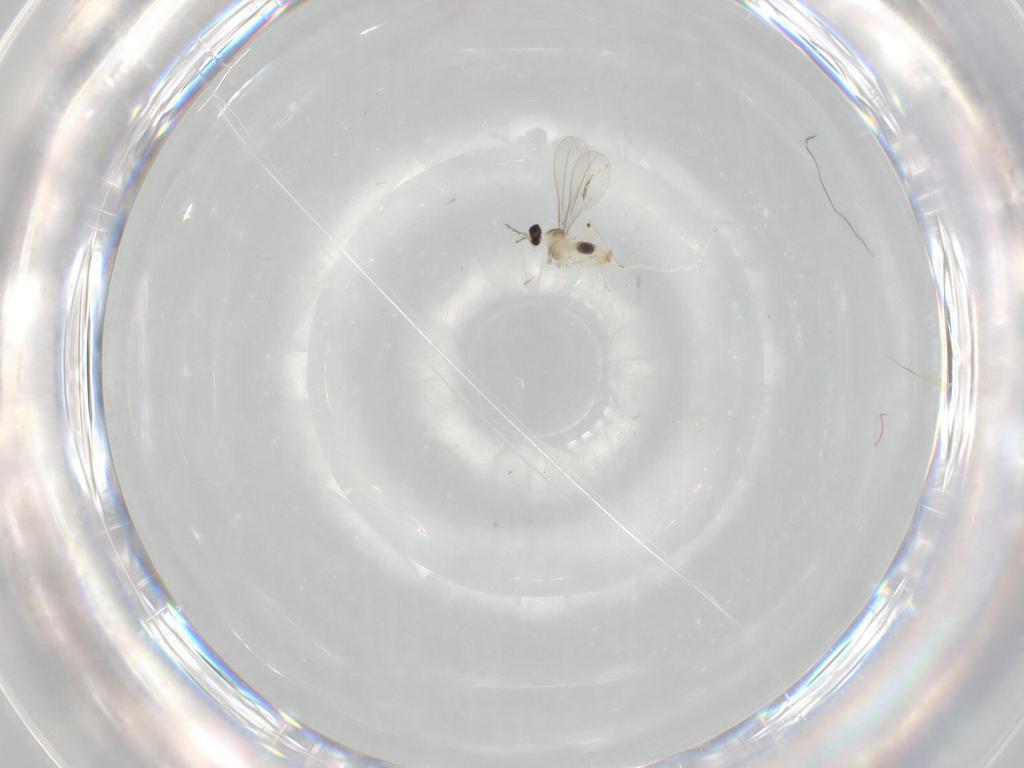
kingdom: Animalia
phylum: Arthropoda
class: Insecta
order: Diptera
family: Cecidomyiidae
